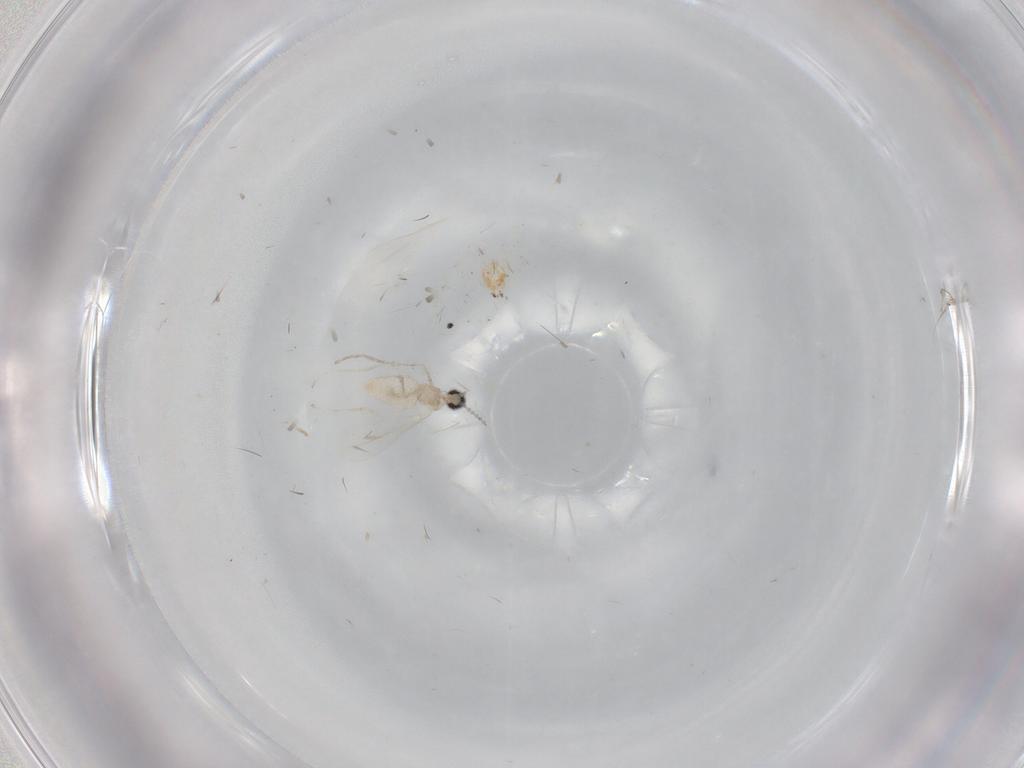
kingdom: Animalia
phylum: Arthropoda
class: Insecta
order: Diptera
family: Cecidomyiidae
